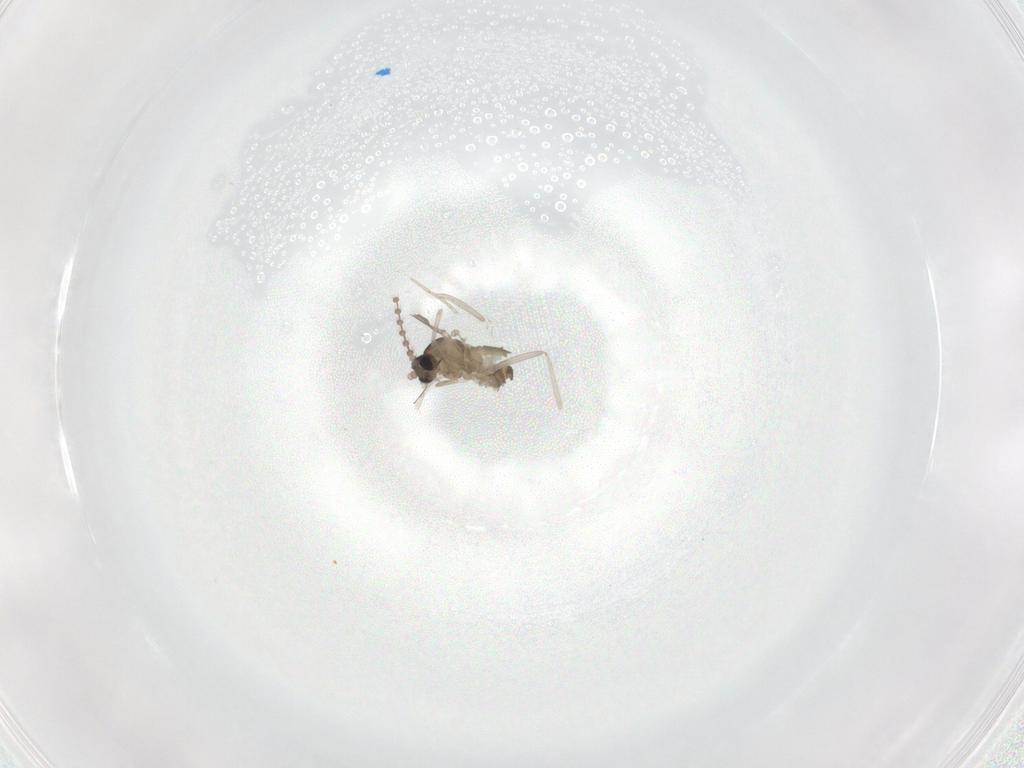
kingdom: Animalia
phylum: Arthropoda
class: Insecta
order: Diptera
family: Cecidomyiidae
